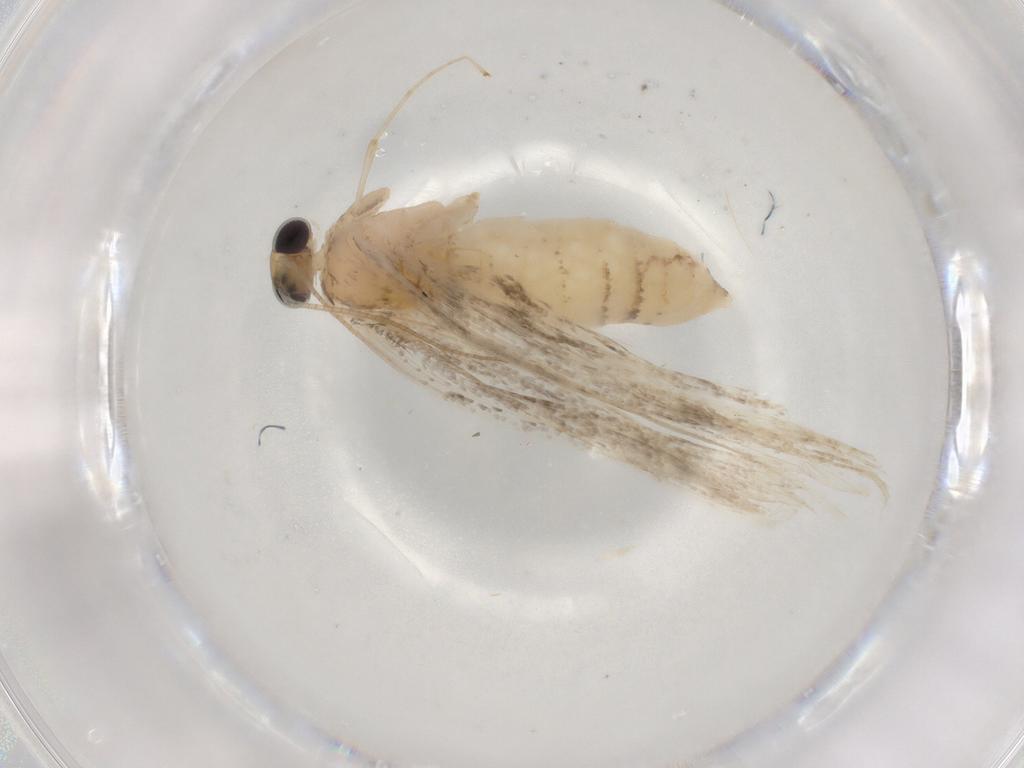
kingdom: Animalia
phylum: Arthropoda
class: Insecta
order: Lepidoptera
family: Noctuidae
